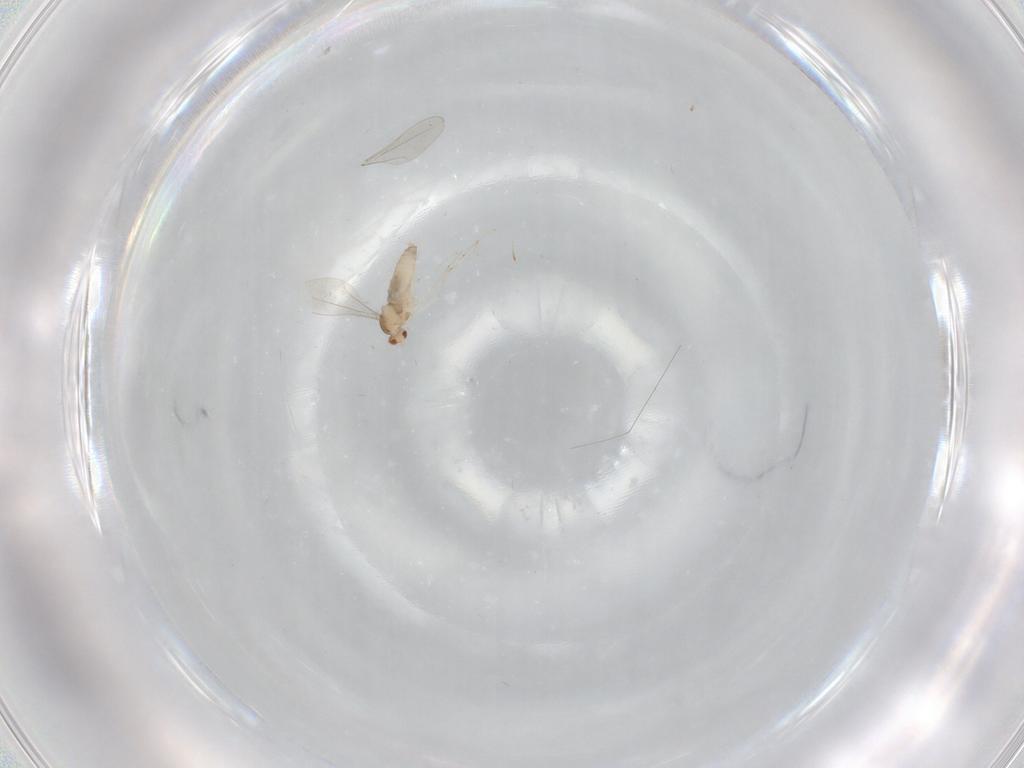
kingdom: Animalia
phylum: Arthropoda
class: Insecta
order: Diptera
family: Cecidomyiidae
